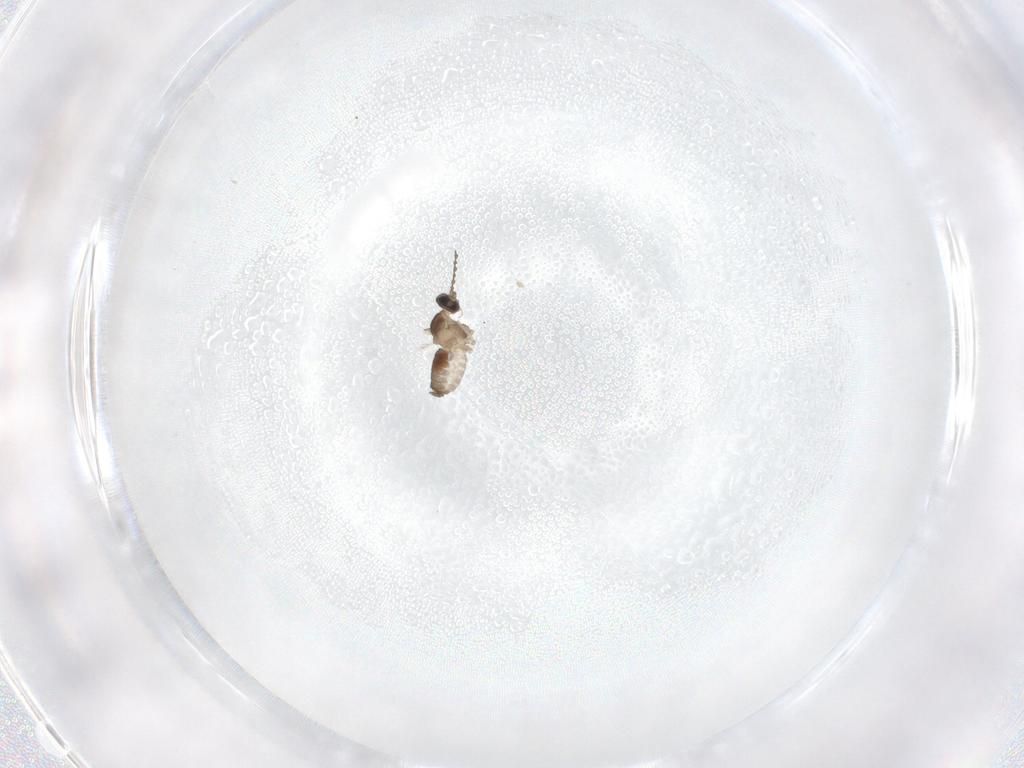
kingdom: Animalia
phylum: Arthropoda
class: Insecta
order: Diptera
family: Cecidomyiidae
